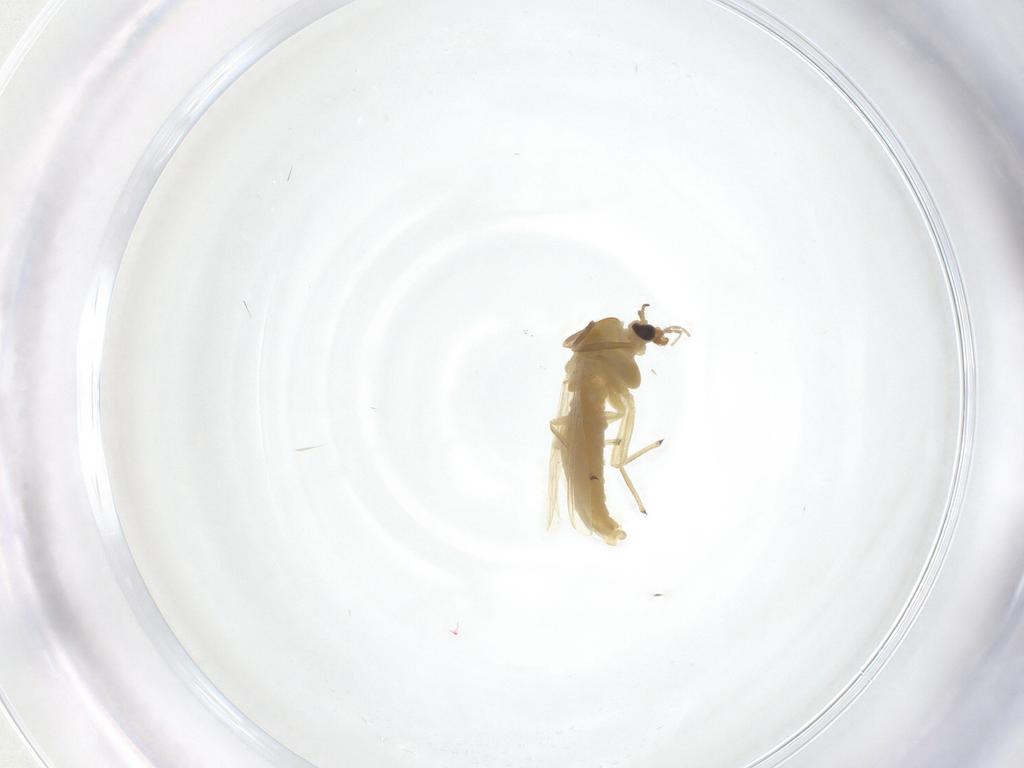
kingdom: Animalia
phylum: Arthropoda
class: Insecta
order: Diptera
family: Chironomidae
